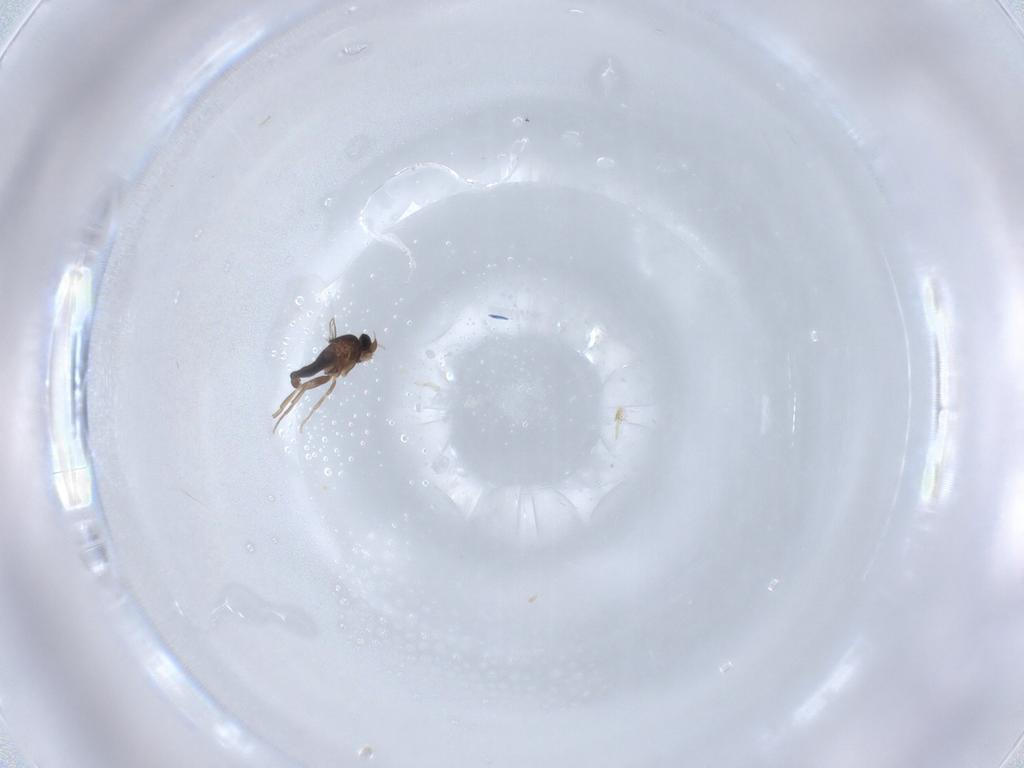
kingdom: Animalia
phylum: Arthropoda
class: Insecta
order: Diptera
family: Phoridae
